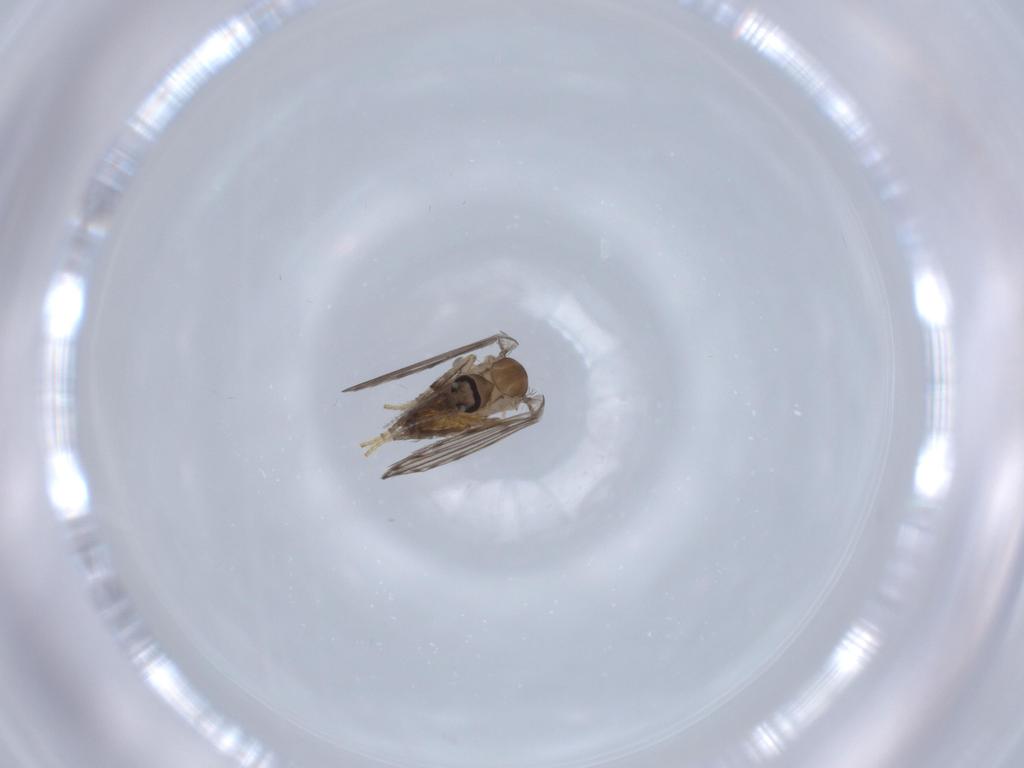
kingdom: Animalia
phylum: Arthropoda
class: Insecta
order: Diptera
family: Psychodidae
